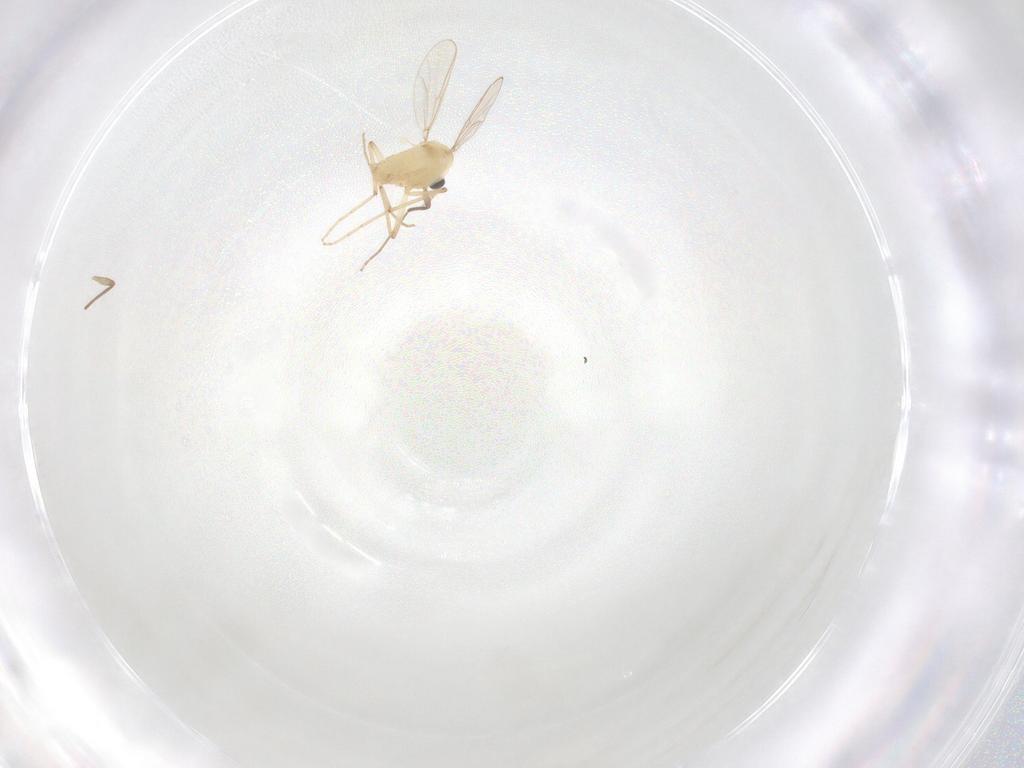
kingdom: Animalia
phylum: Arthropoda
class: Insecta
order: Diptera
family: Chironomidae
